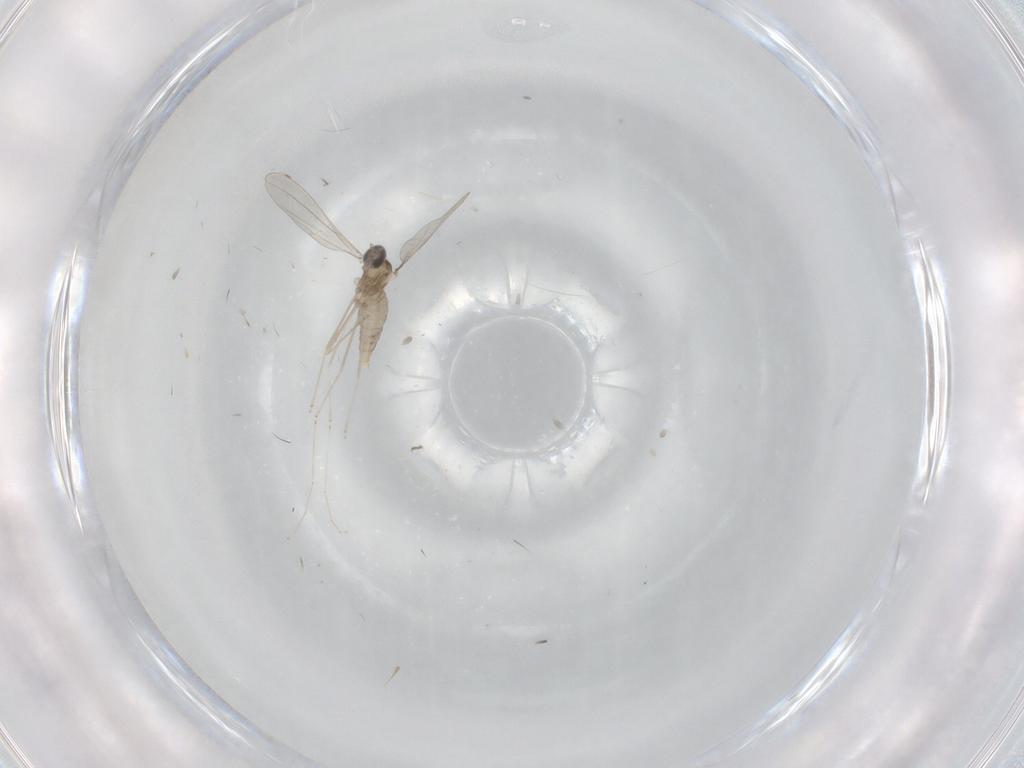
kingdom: Animalia
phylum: Arthropoda
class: Insecta
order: Diptera
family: Cecidomyiidae
